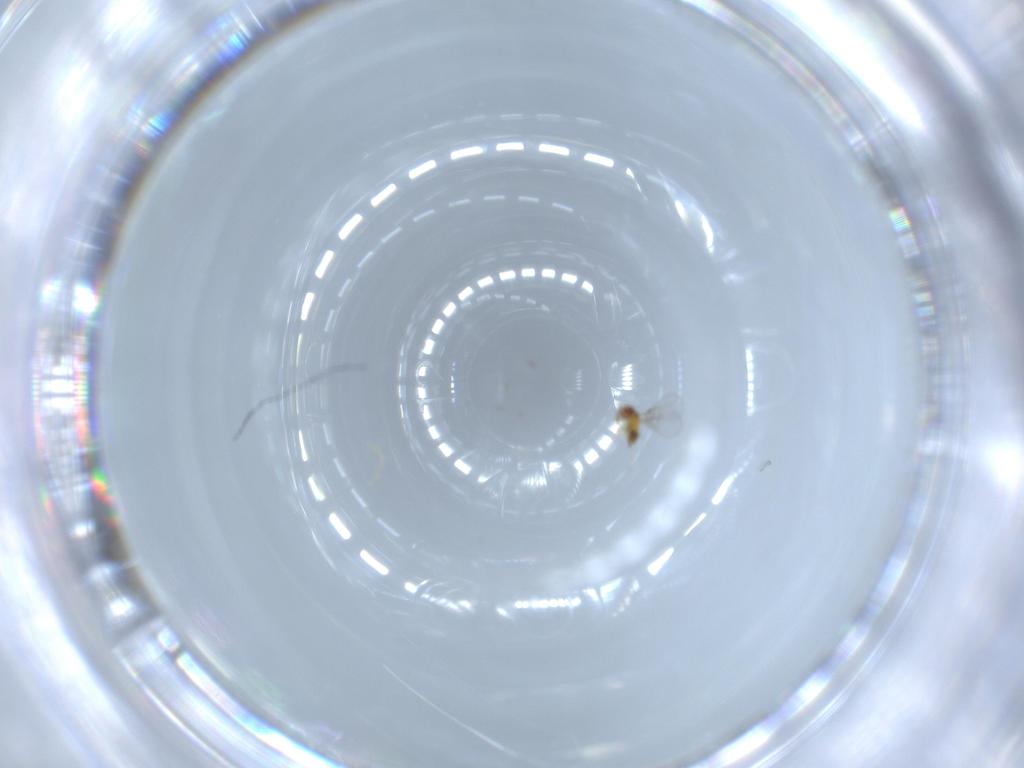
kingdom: Animalia
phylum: Arthropoda
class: Insecta
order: Hymenoptera
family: Trichogrammatidae
